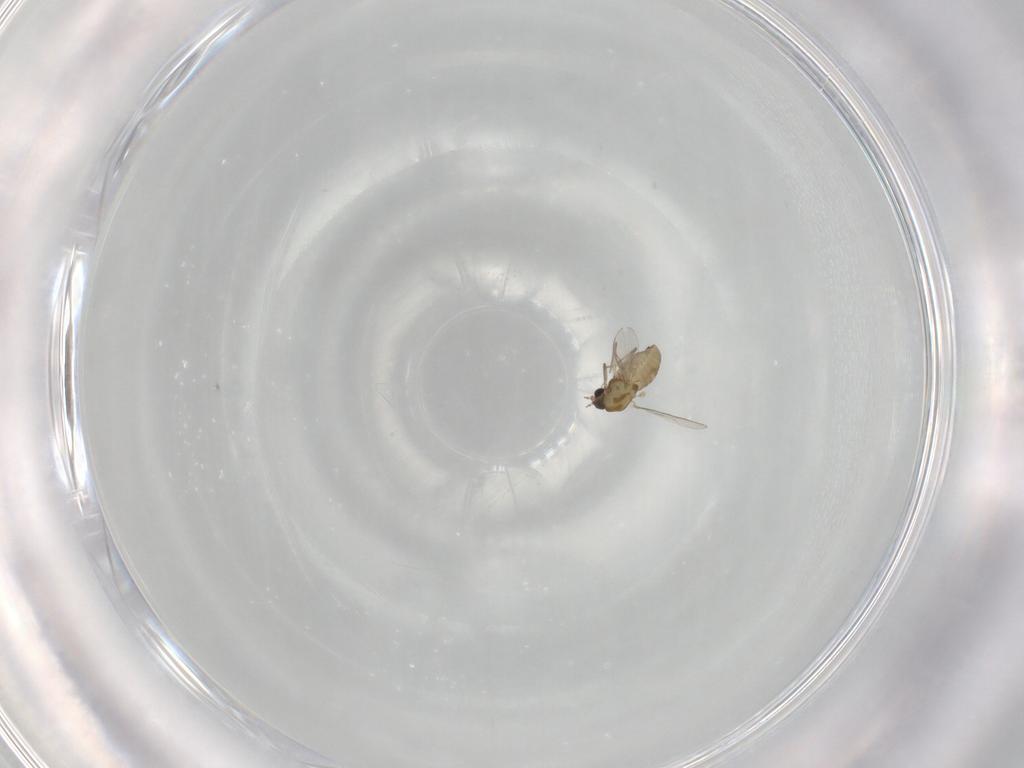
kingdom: Animalia
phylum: Arthropoda
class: Insecta
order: Diptera
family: Chironomidae
